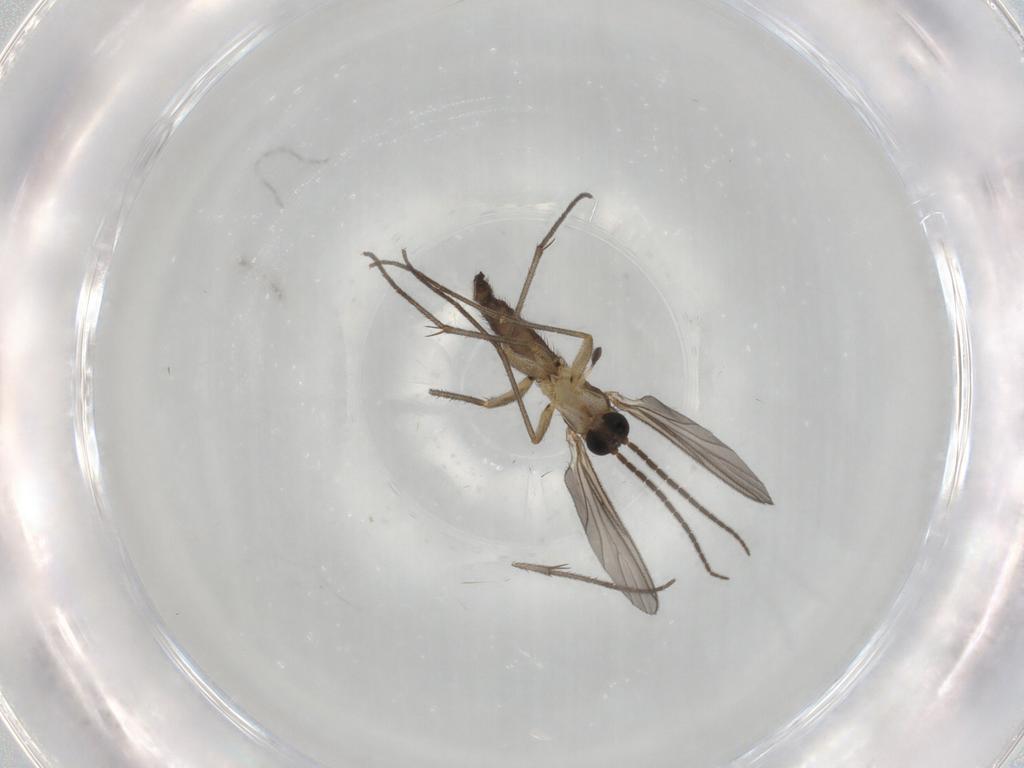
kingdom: Animalia
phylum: Arthropoda
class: Insecta
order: Diptera
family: Sciaridae
